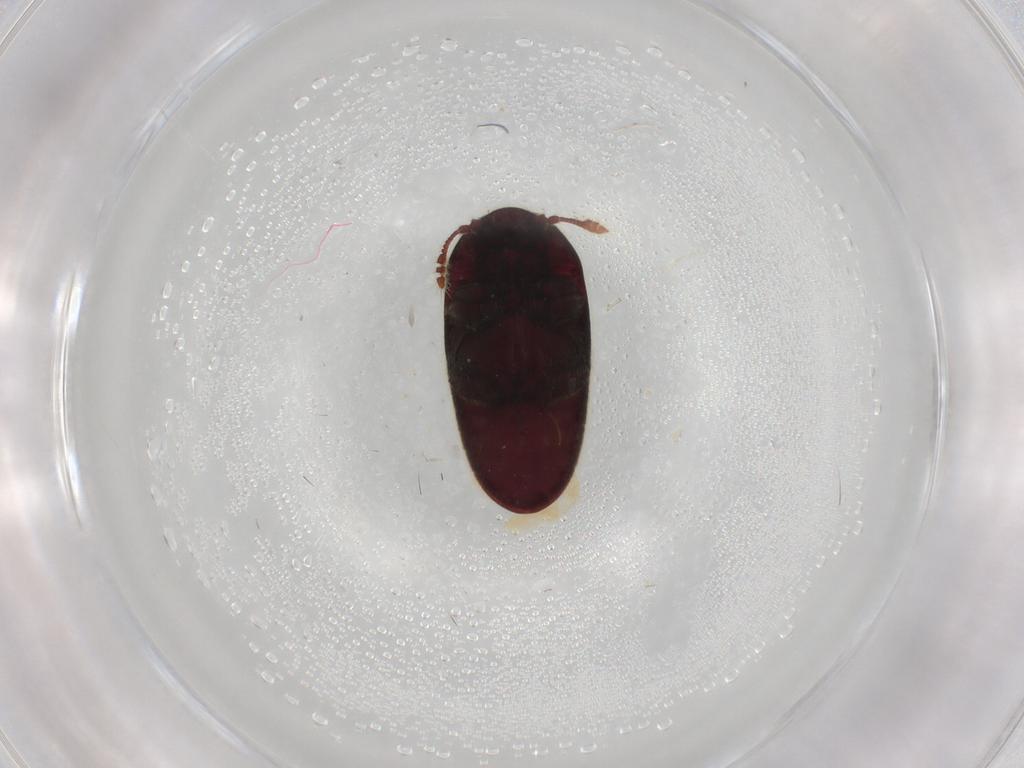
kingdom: Animalia
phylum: Arthropoda
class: Insecta
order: Coleoptera
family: Throscidae
